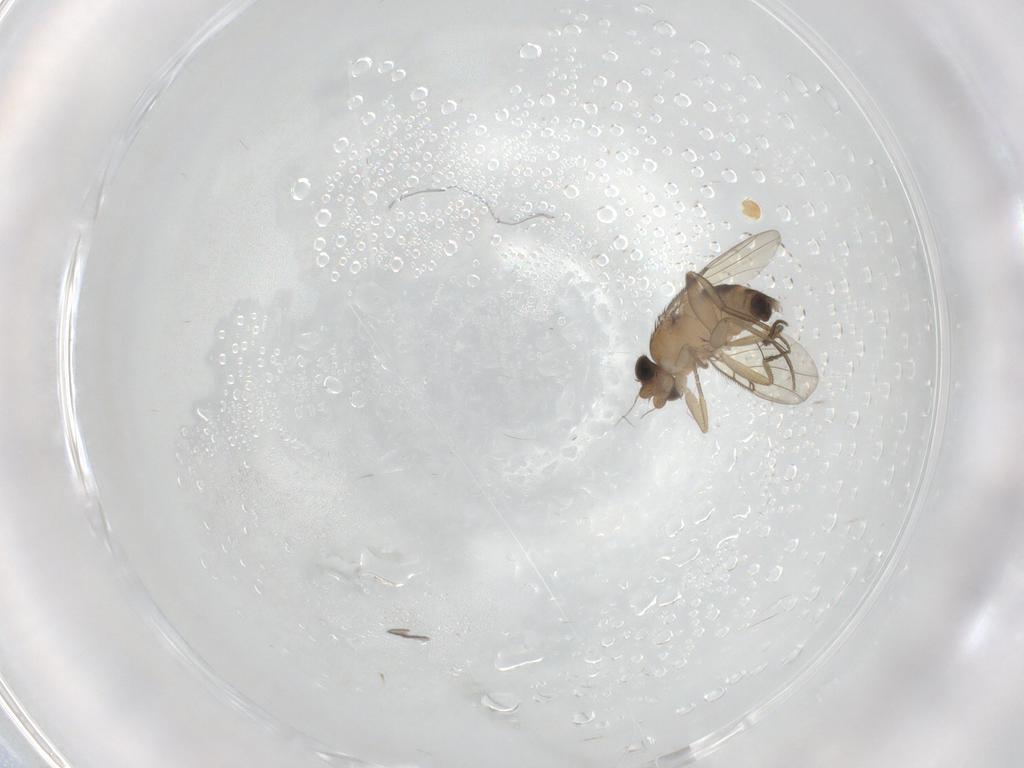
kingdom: Animalia
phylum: Arthropoda
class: Insecta
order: Diptera
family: Phoridae
